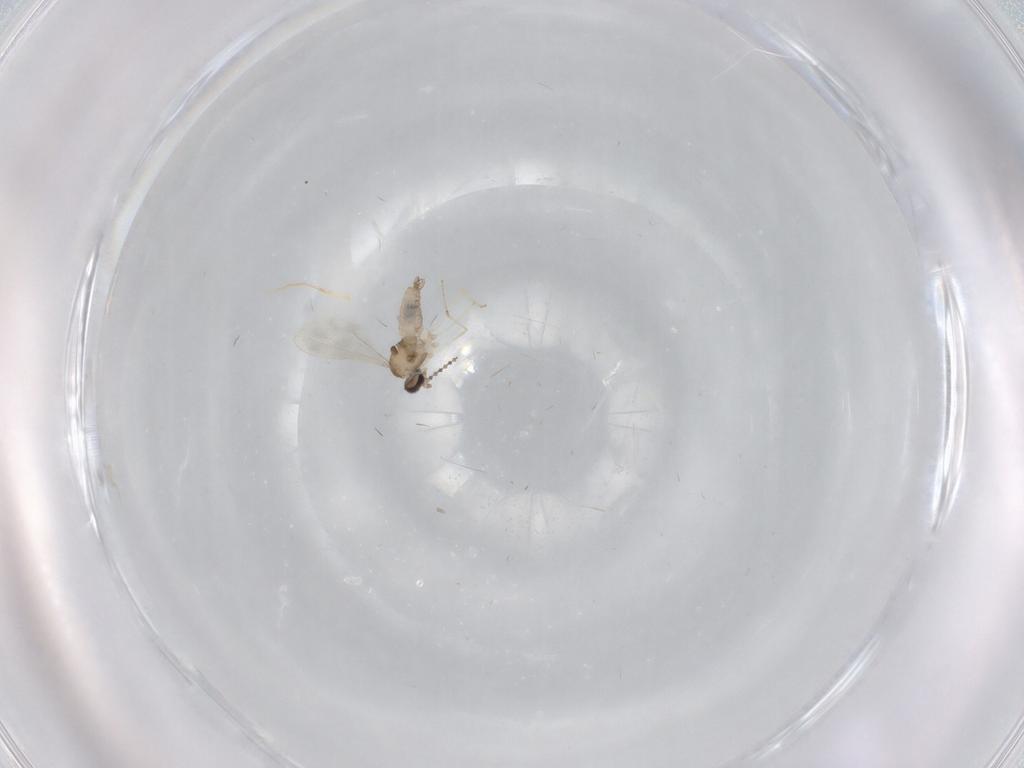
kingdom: Animalia
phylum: Arthropoda
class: Insecta
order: Diptera
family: Cecidomyiidae
